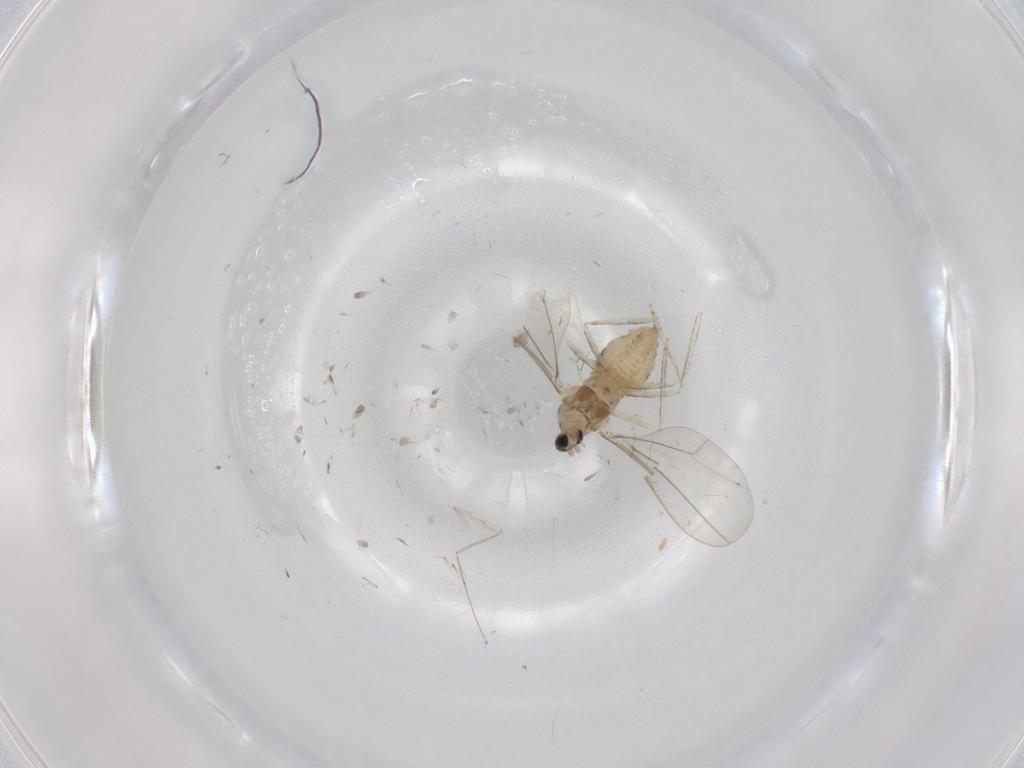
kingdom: Animalia
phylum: Arthropoda
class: Insecta
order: Diptera
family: Cecidomyiidae
